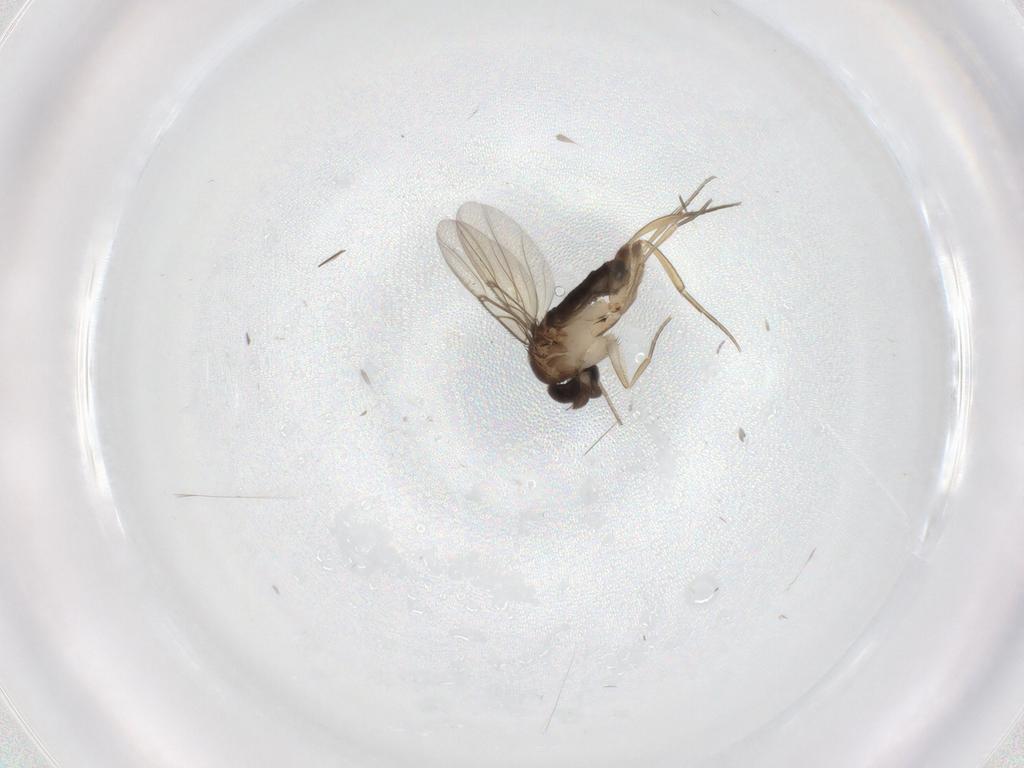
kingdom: Animalia
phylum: Arthropoda
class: Insecta
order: Diptera
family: Phoridae
